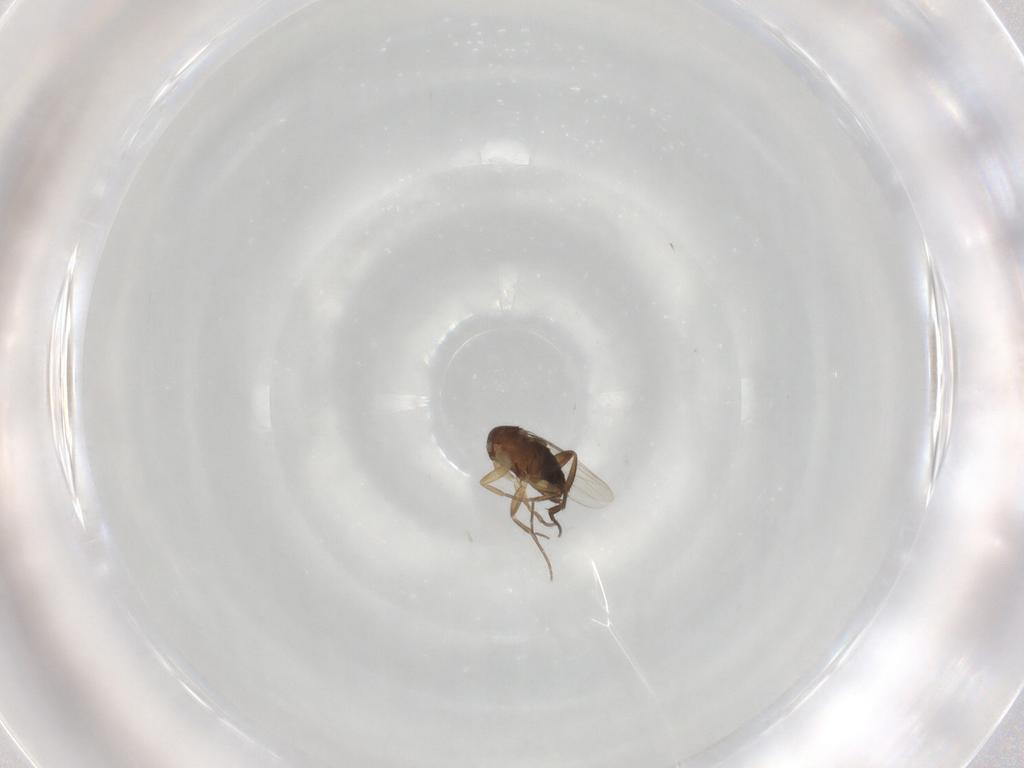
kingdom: Animalia
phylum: Arthropoda
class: Insecta
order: Diptera
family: Phoridae
